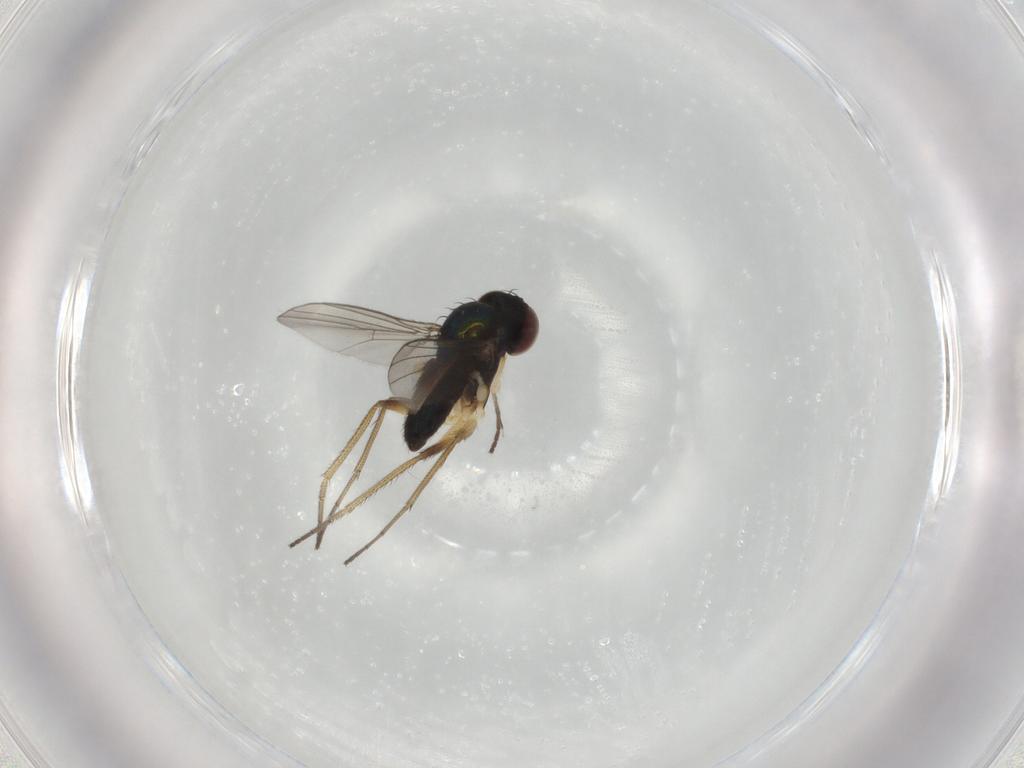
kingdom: Animalia
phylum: Arthropoda
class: Insecta
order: Diptera
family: Dolichopodidae
